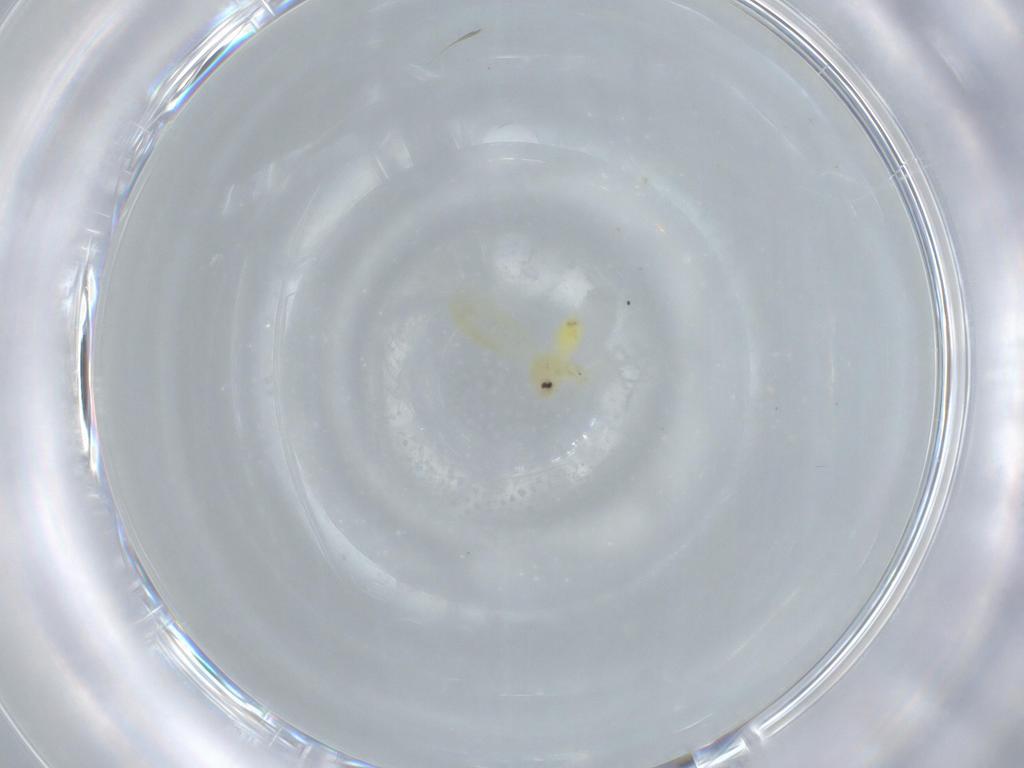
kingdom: Animalia
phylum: Arthropoda
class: Insecta
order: Hemiptera
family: Aleyrodidae
